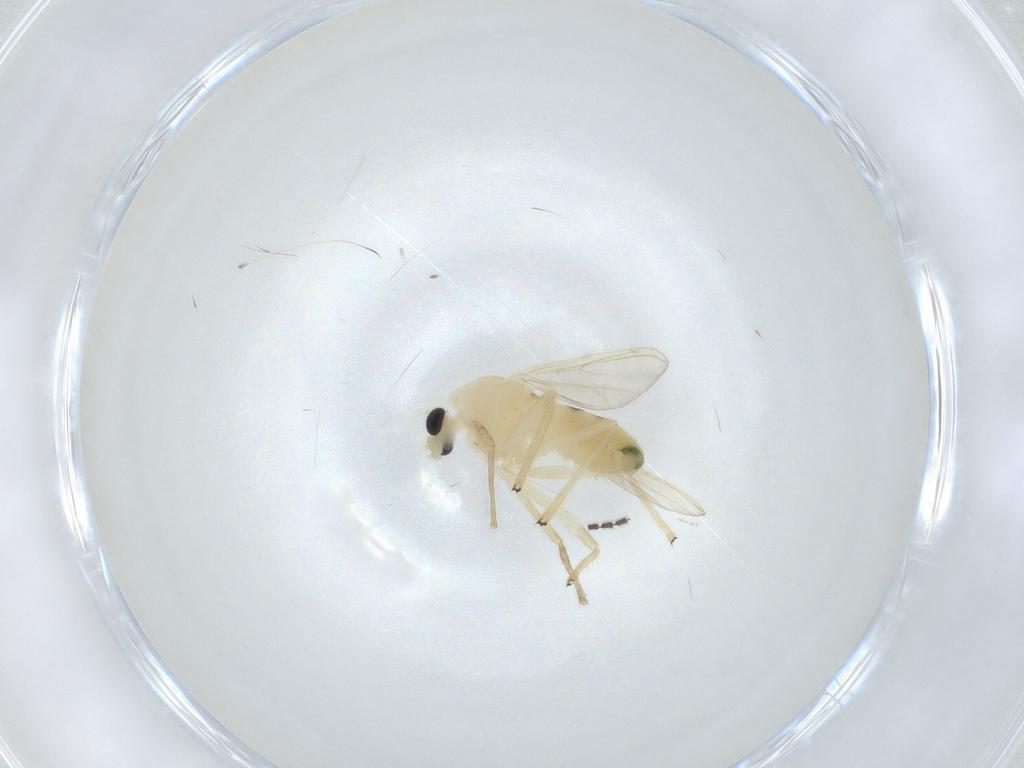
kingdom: Animalia
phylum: Arthropoda
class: Insecta
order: Diptera
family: Chironomidae
